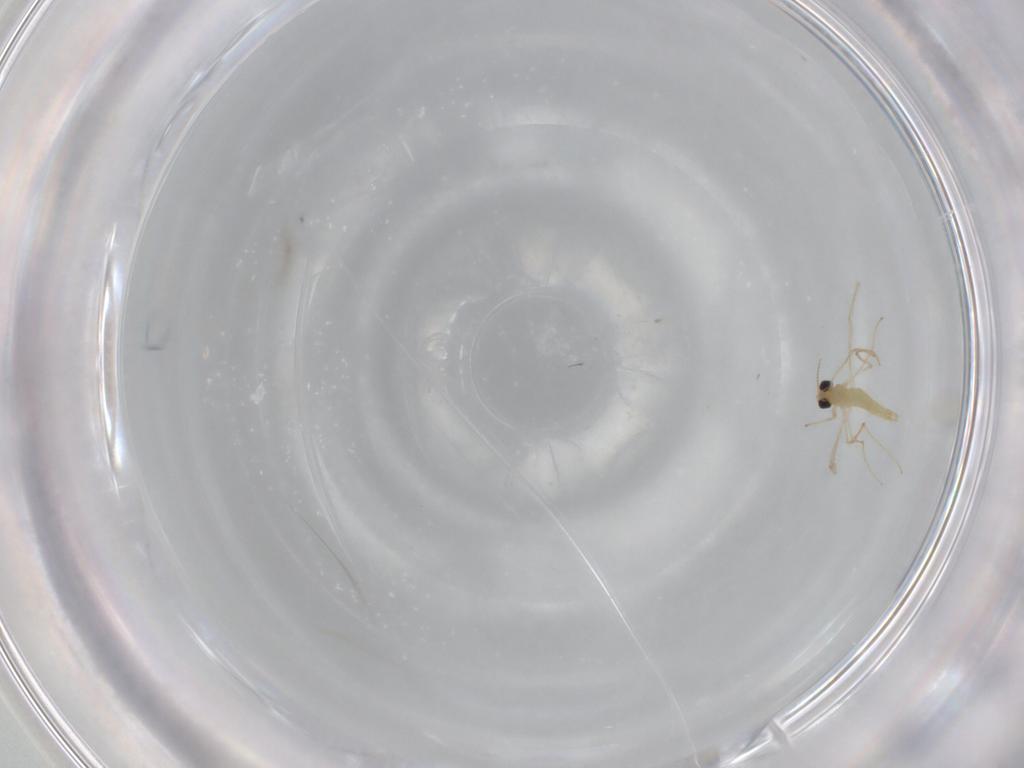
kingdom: Animalia
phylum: Arthropoda
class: Insecta
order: Diptera
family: Chironomidae
